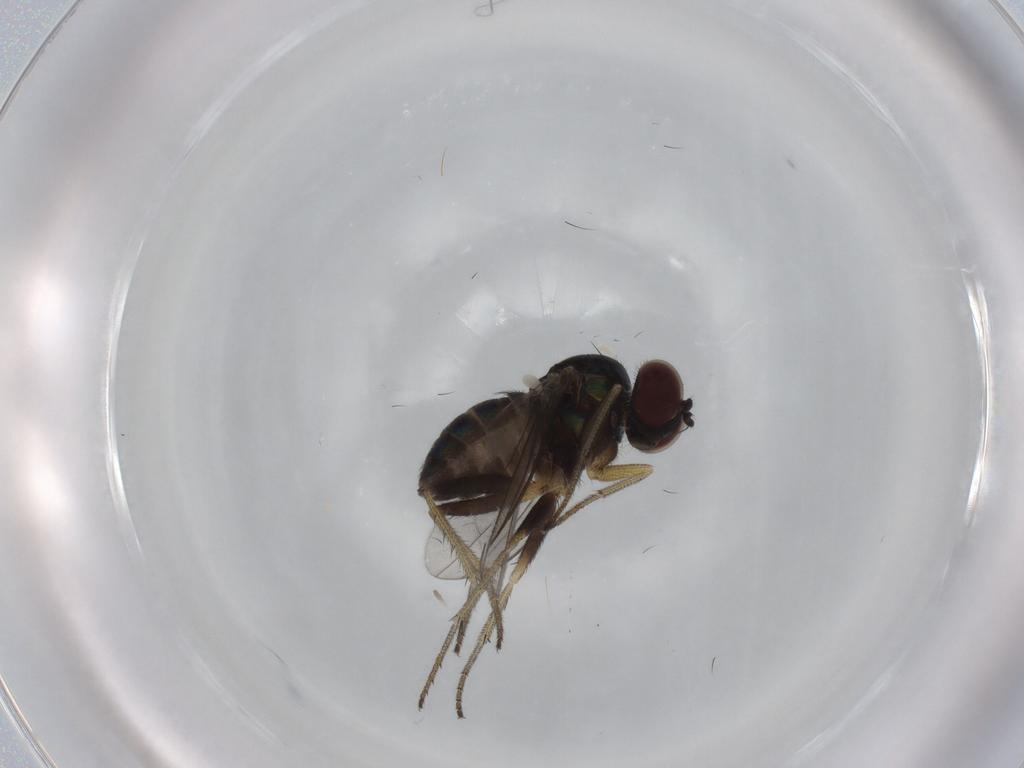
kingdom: Animalia
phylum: Arthropoda
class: Insecta
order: Diptera
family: Dolichopodidae
